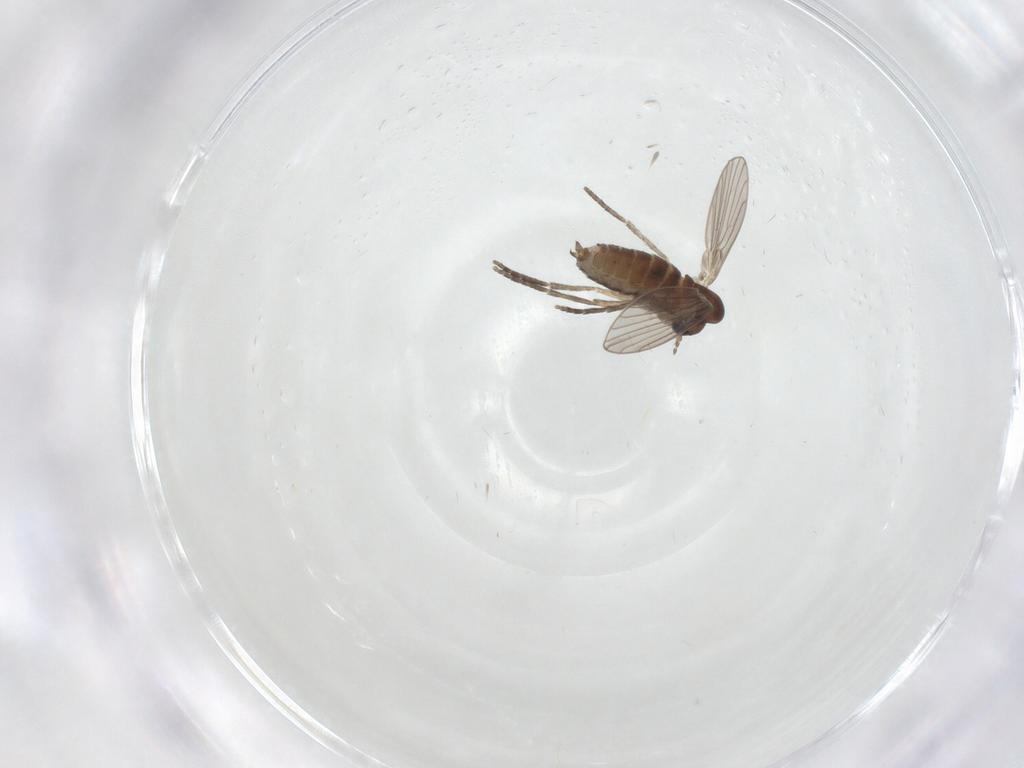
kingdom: Animalia
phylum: Arthropoda
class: Insecta
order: Diptera
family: Psychodidae
